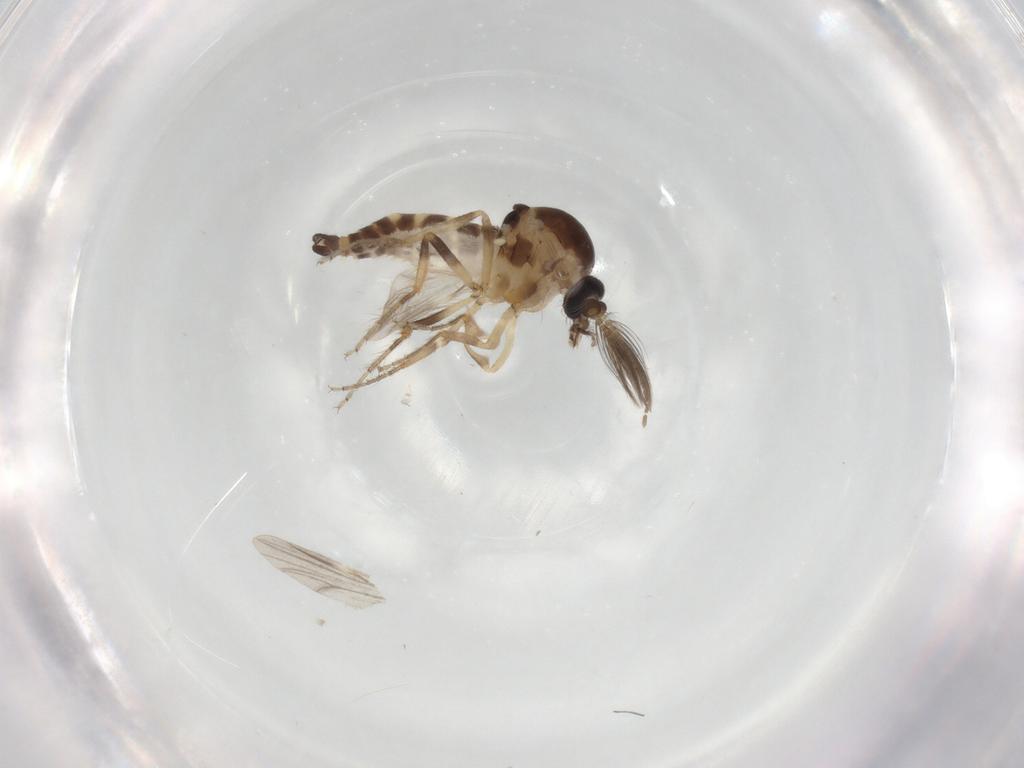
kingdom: Animalia
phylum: Arthropoda
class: Insecta
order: Diptera
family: Ceratopogonidae
